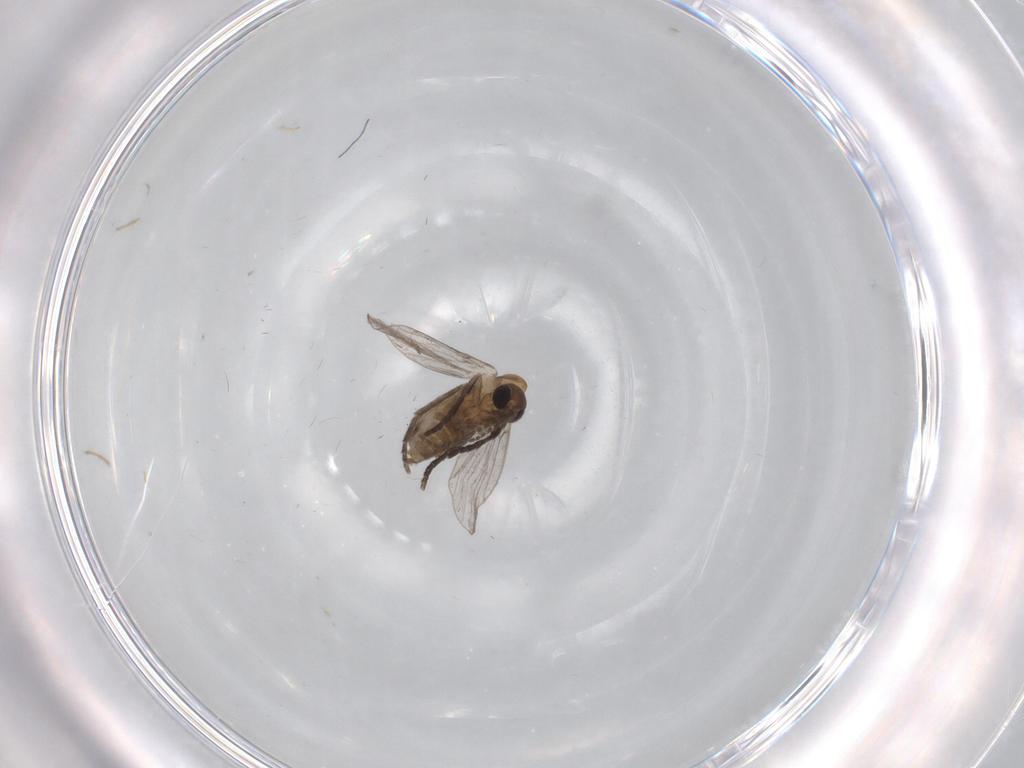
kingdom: Animalia
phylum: Arthropoda
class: Insecta
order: Diptera
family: Psychodidae
